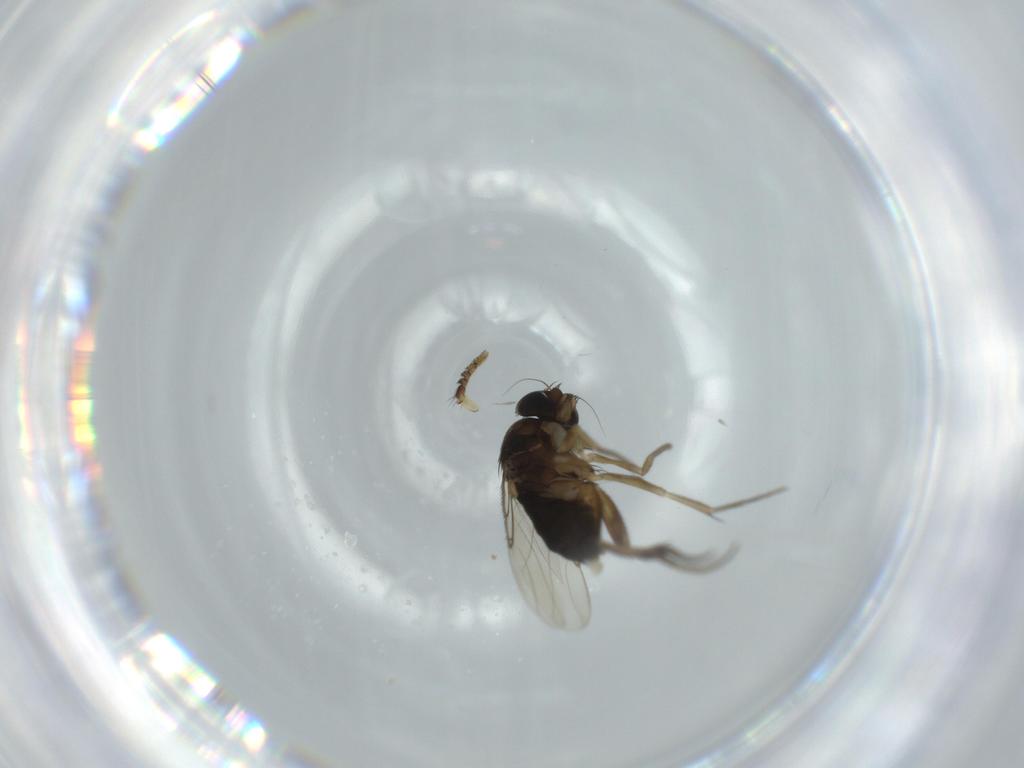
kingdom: Animalia
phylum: Arthropoda
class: Insecta
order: Diptera
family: Phoridae
